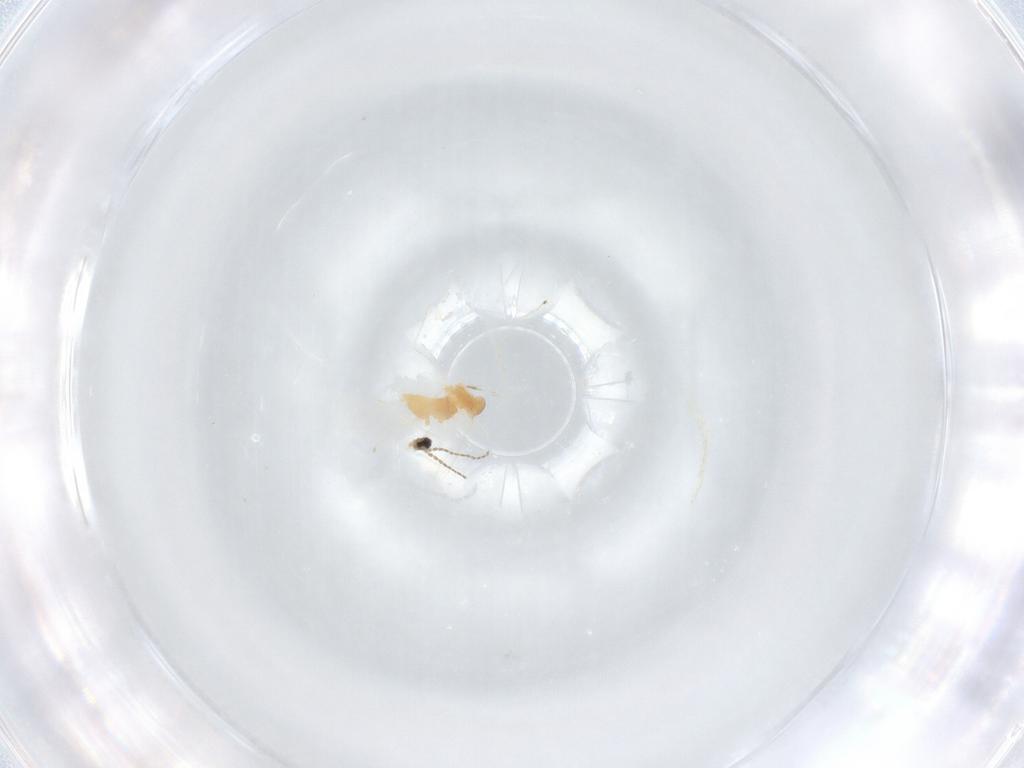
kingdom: Animalia
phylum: Arthropoda
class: Insecta
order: Diptera
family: Cecidomyiidae
